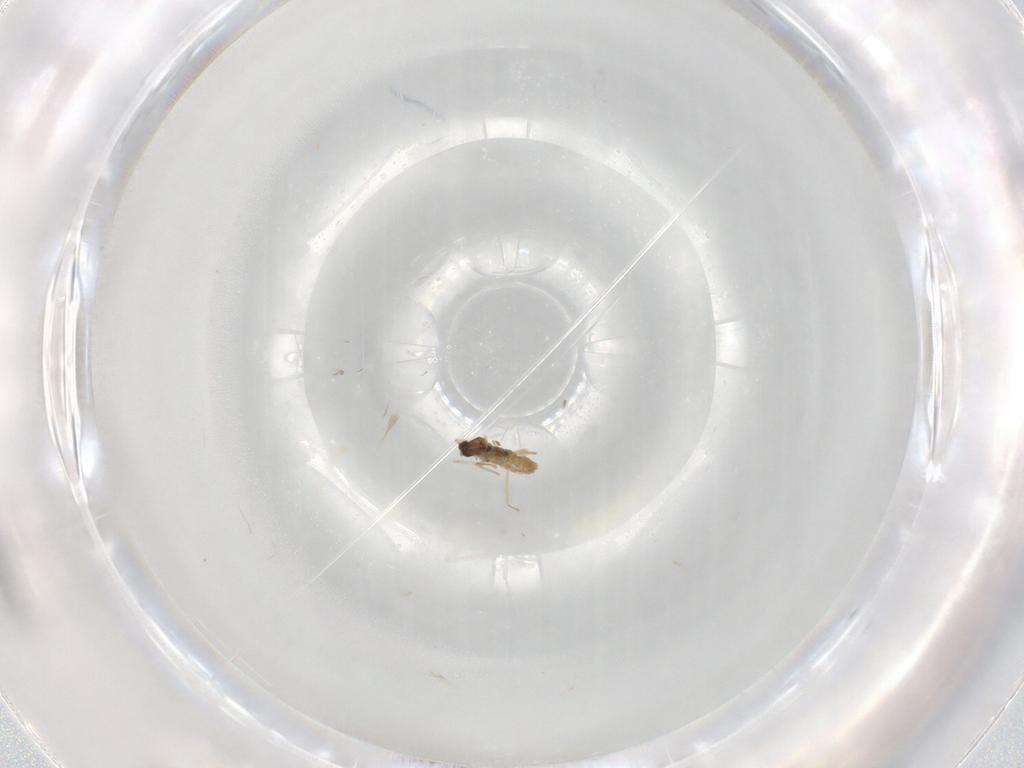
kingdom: Animalia
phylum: Arthropoda
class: Insecta
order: Diptera
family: Cecidomyiidae
